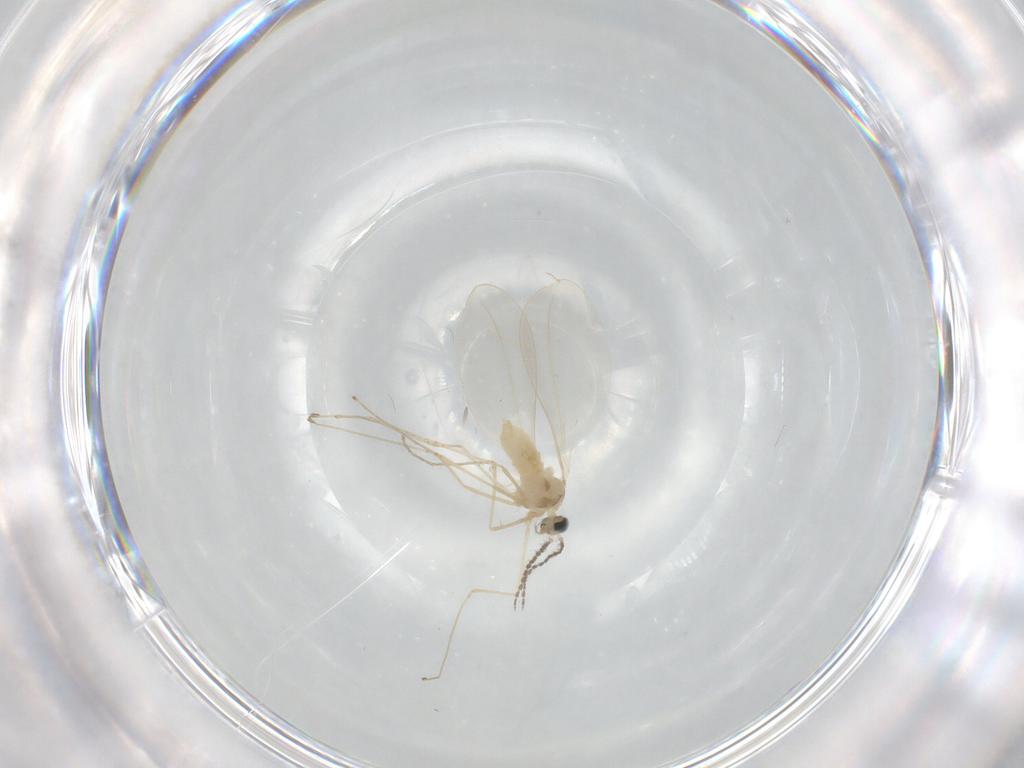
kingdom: Animalia
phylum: Arthropoda
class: Insecta
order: Diptera
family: Cecidomyiidae
